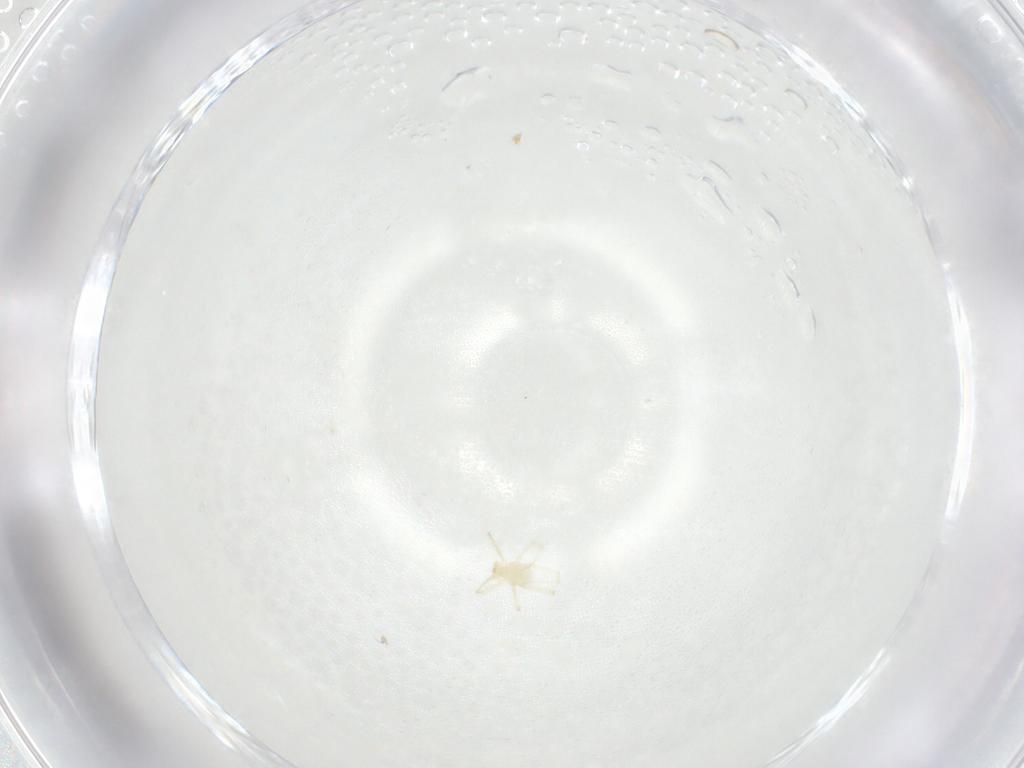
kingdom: Animalia
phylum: Arthropoda
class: Arachnida
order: Trombidiformes
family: Erythraeidae
